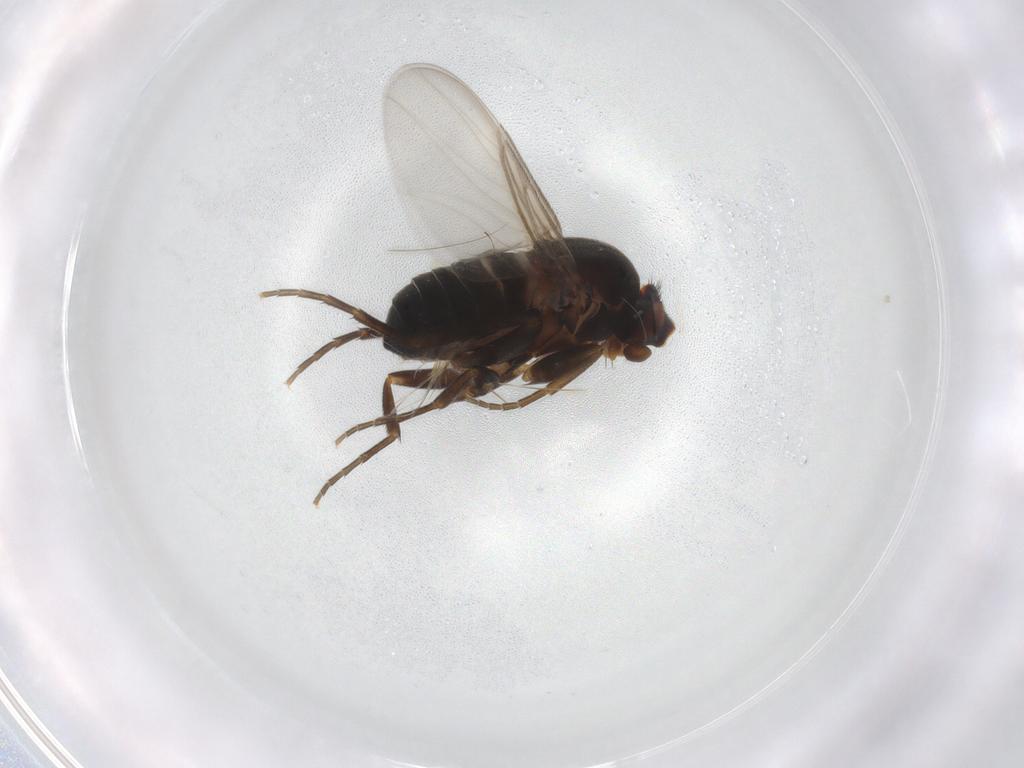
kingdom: Animalia
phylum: Arthropoda
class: Insecta
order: Diptera
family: Phoridae
